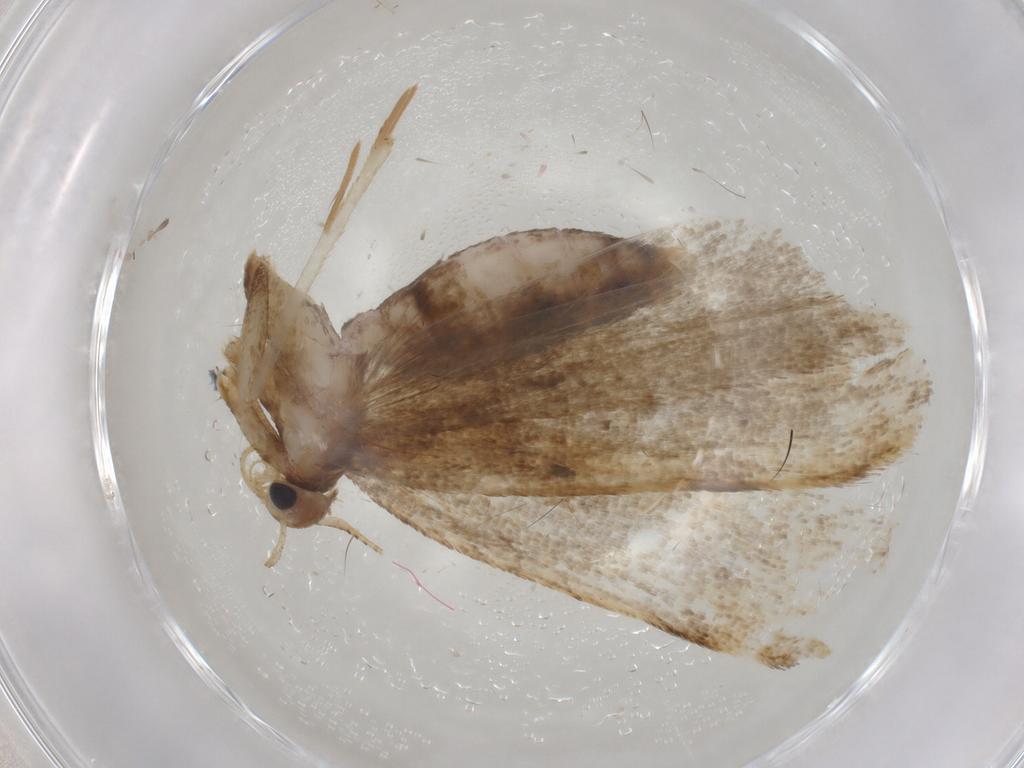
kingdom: Animalia
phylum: Arthropoda
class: Insecta
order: Lepidoptera
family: Gelechiidae
